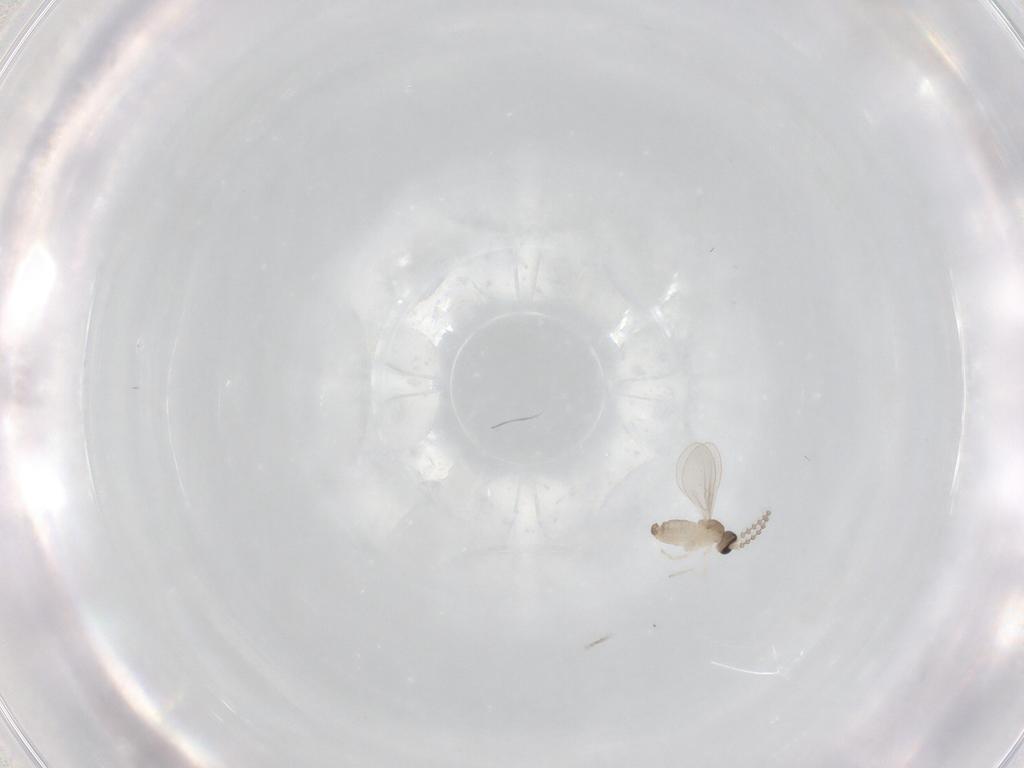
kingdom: Animalia
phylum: Arthropoda
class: Insecta
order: Diptera
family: Cecidomyiidae
